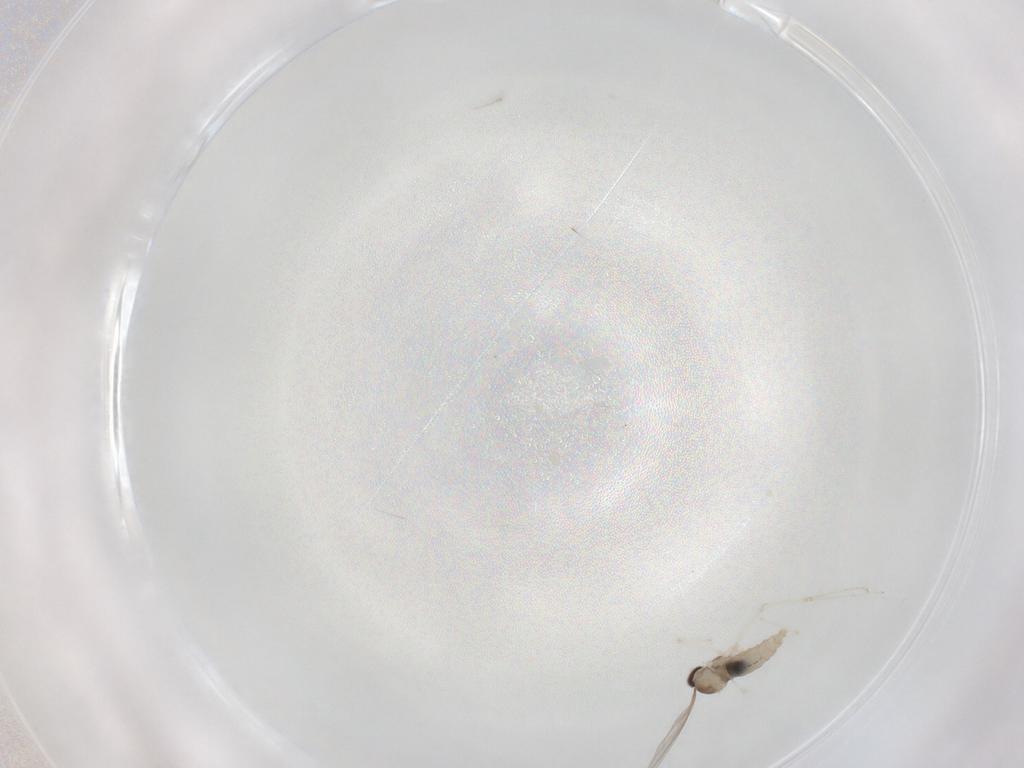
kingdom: Animalia
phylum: Arthropoda
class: Insecta
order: Diptera
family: Cecidomyiidae
